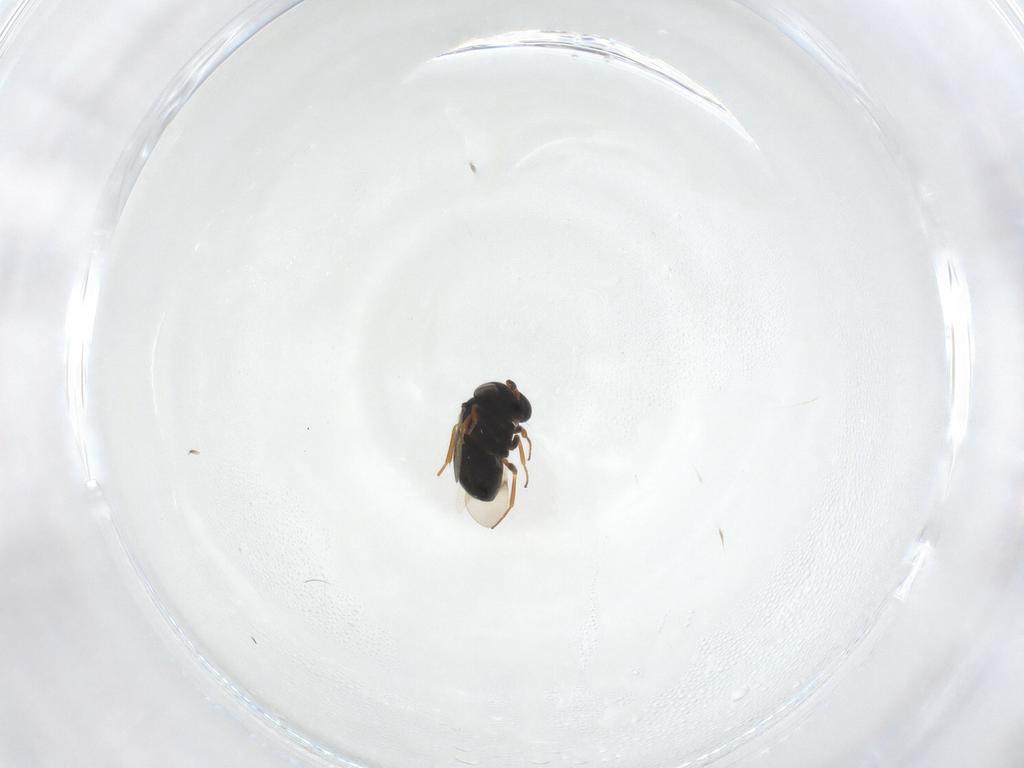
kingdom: Animalia
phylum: Arthropoda
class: Insecta
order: Hymenoptera
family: Scelionidae
